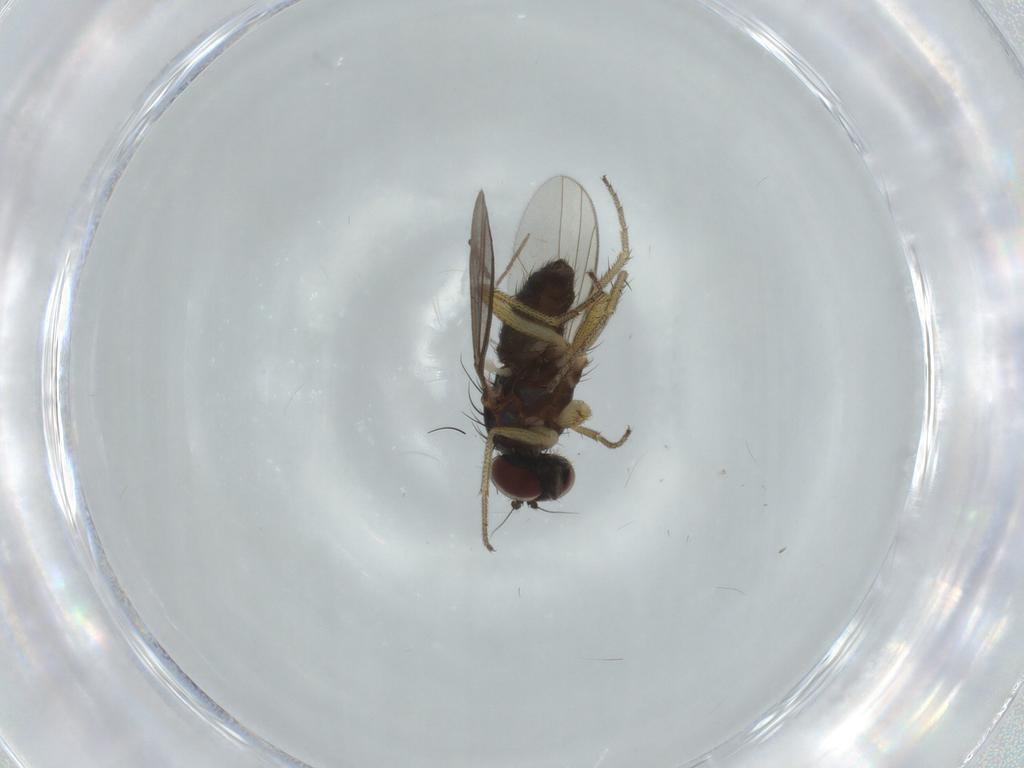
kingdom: Animalia
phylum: Arthropoda
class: Insecta
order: Diptera
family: Limoniidae
